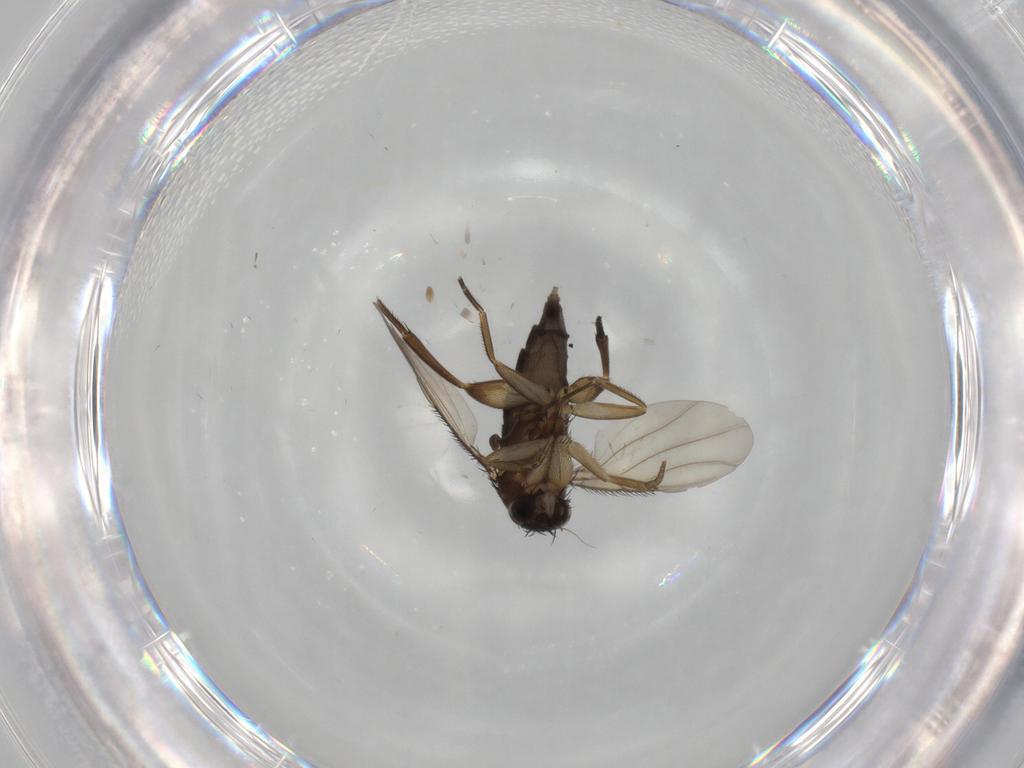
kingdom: Animalia
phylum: Arthropoda
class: Insecta
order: Diptera
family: Phoridae
